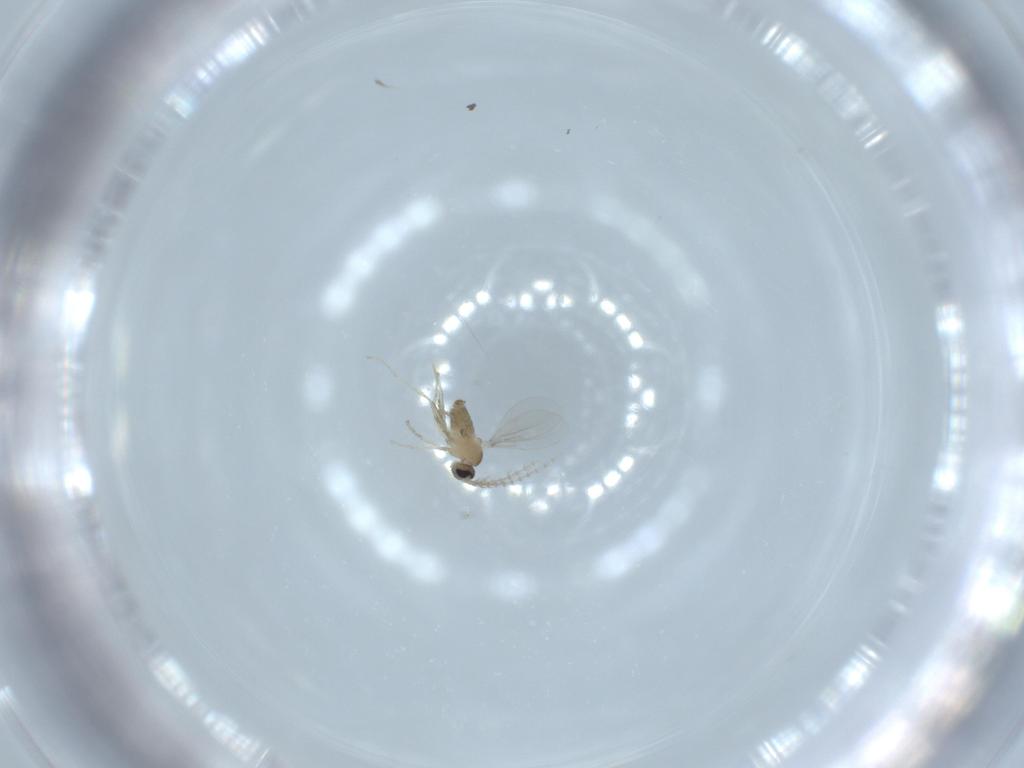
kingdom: Animalia
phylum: Arthropoda
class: Insecta
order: Diptera
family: Cecidomyiidae
